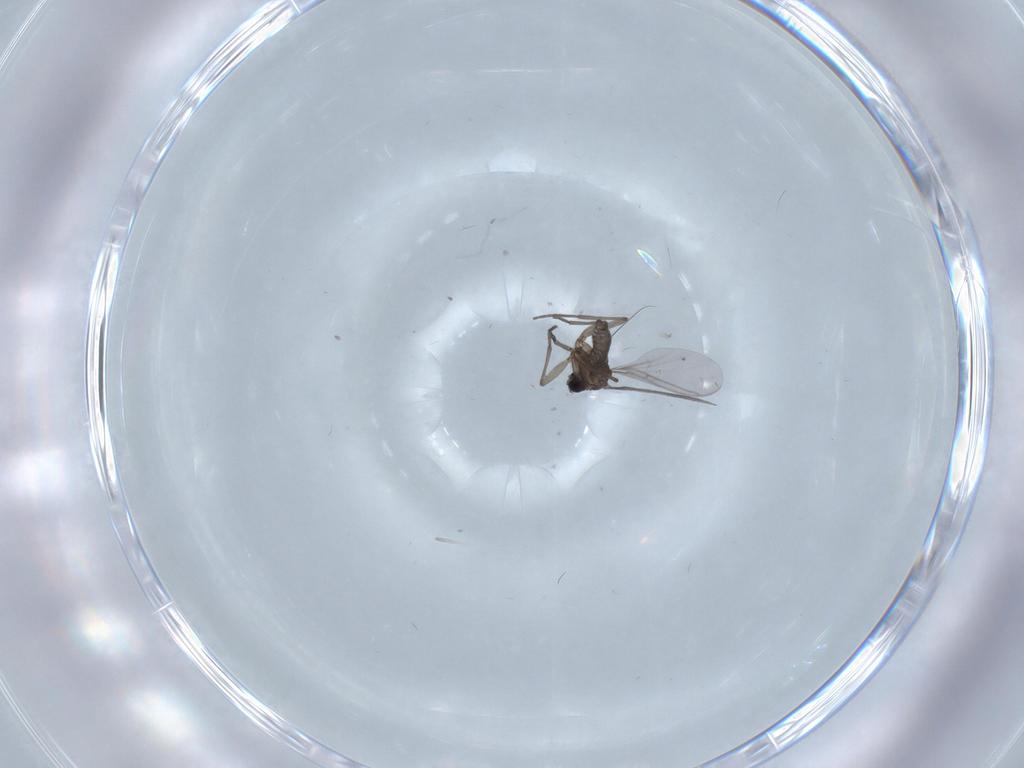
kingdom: Animalia
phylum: Arthropoda
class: Insecta
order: Diptera
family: Sciaridae
